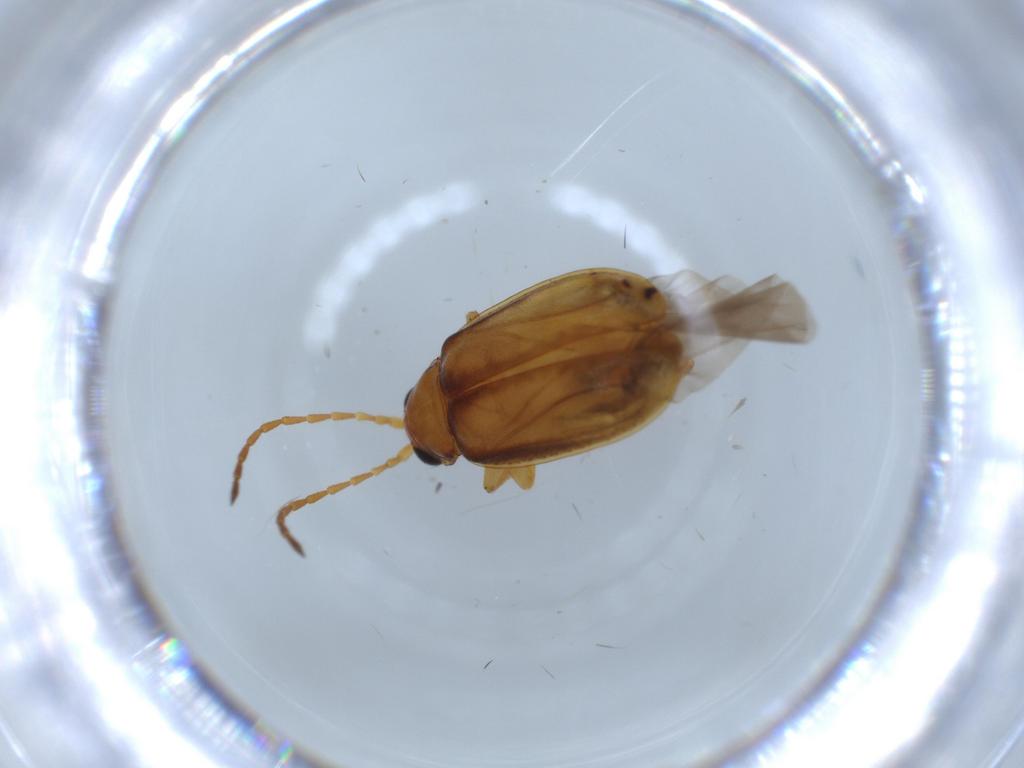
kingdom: Animalia
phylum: Arthropoda
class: Insecta
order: Coleoptera
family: Chrysomelidae
